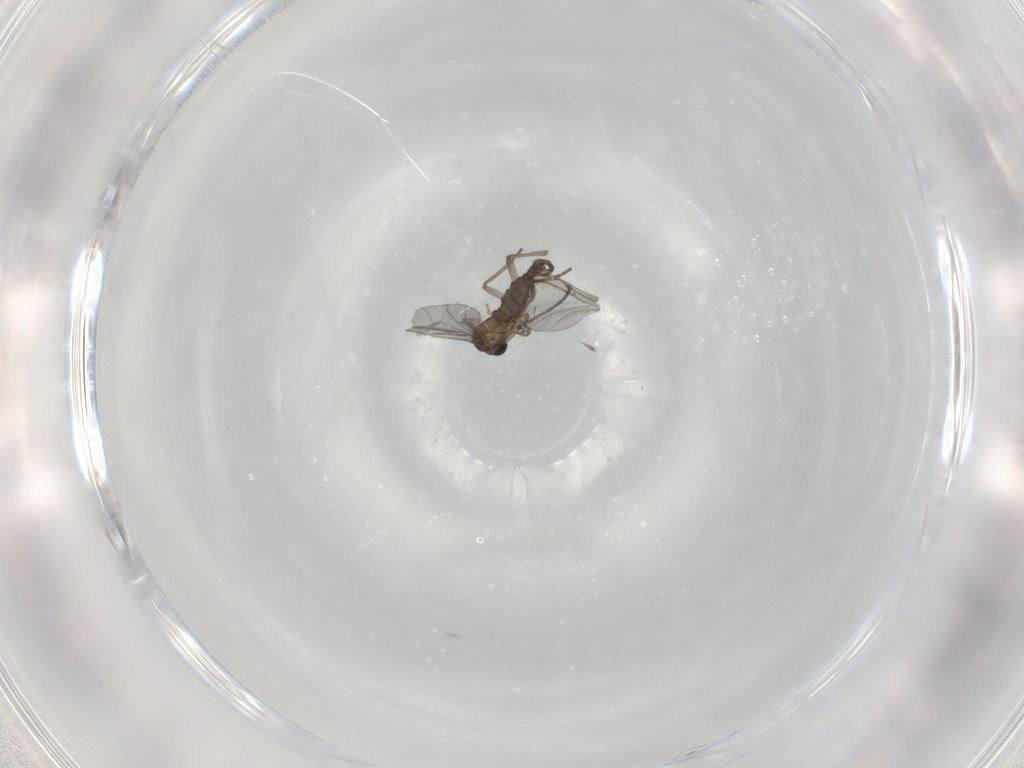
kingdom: Animalia
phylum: Arthropoda
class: Insecta
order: Diptera
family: Sciaridae
